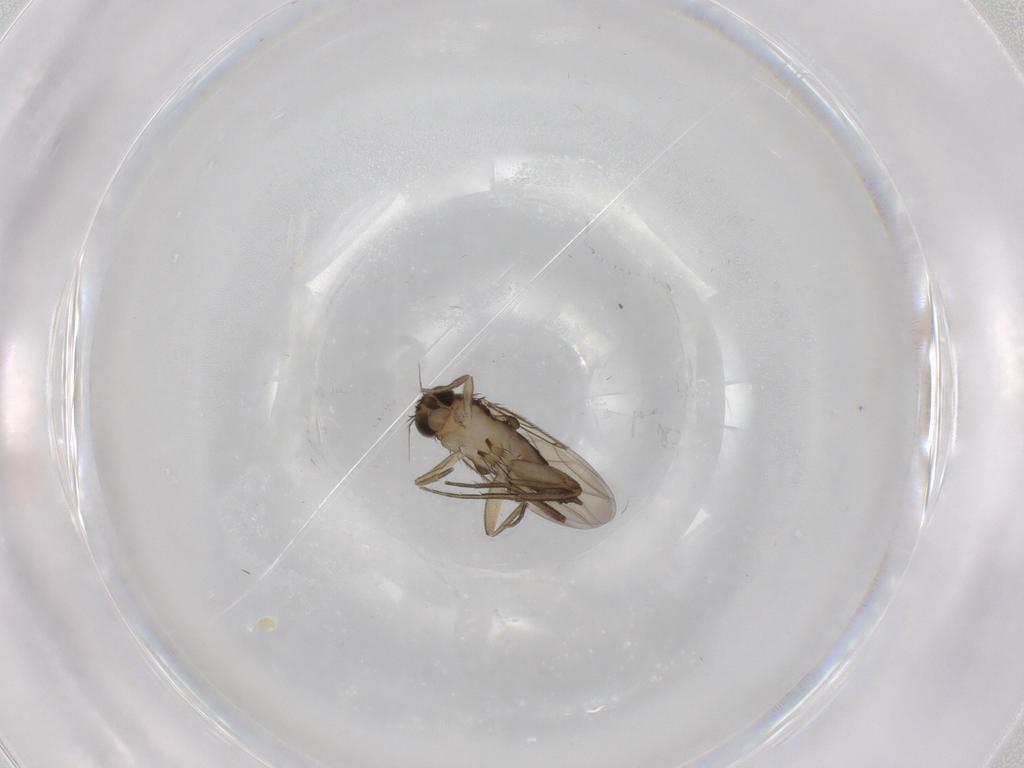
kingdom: Animalia
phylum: Arthropoda
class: Insecta
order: Diptera
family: Phoridae
